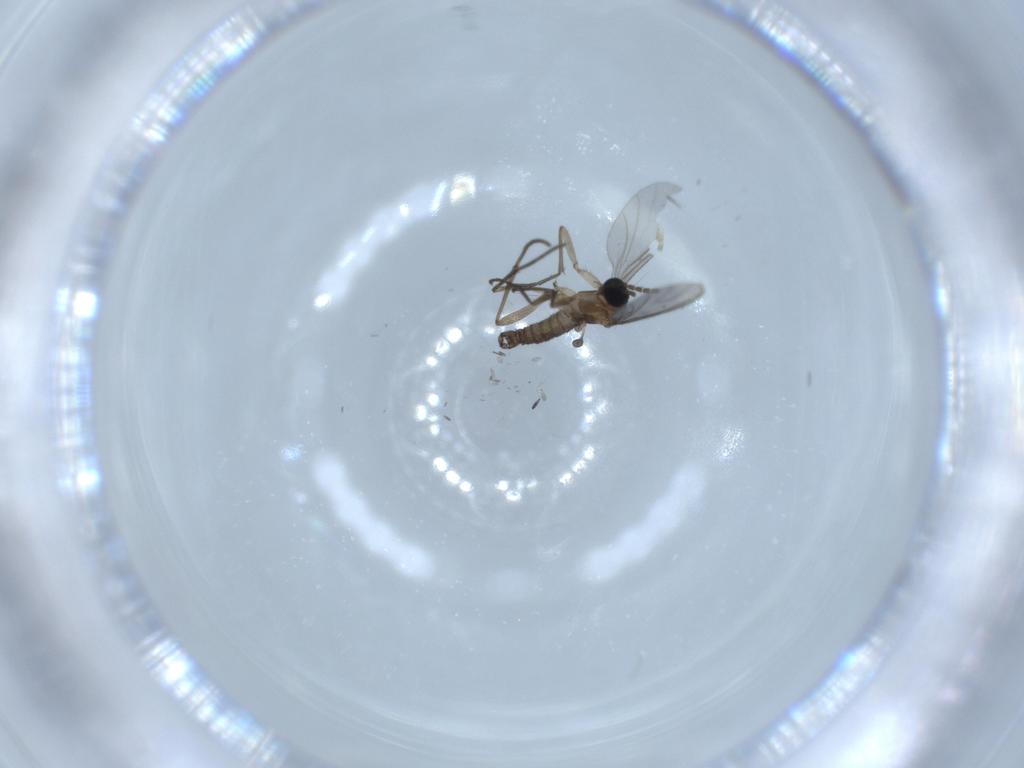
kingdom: Animalia
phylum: Arthropoda
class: Insecta
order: Diptera
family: Sciaridae
